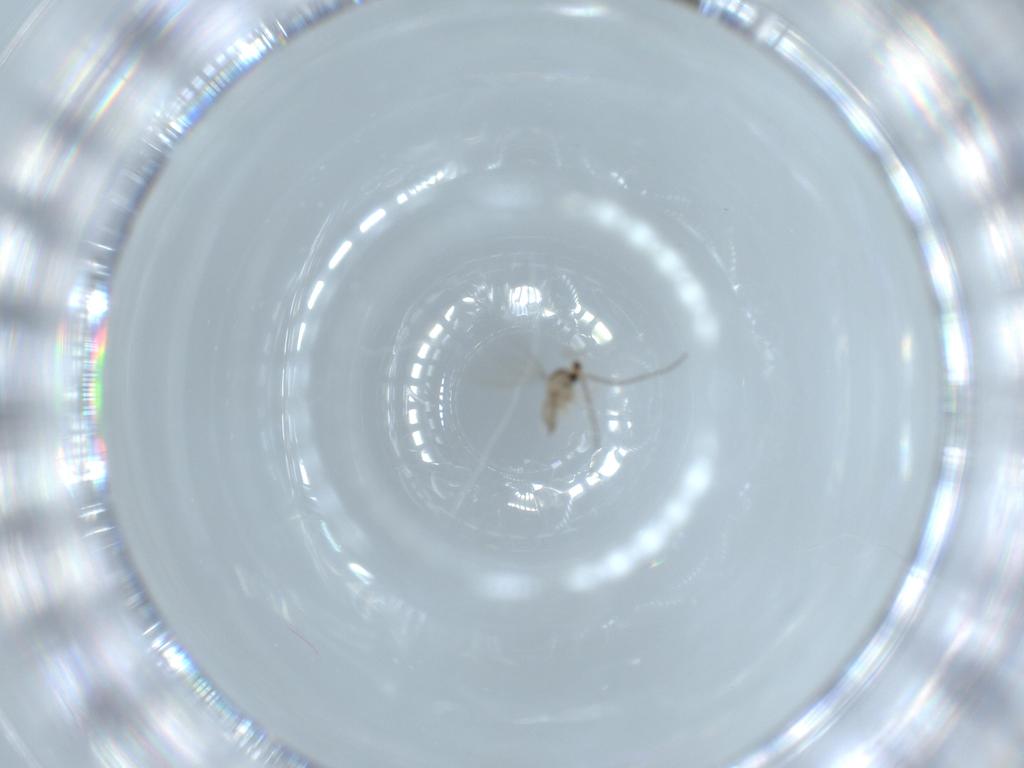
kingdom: Animalia
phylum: Arthropoda
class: Insecta
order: Diptera
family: Cecidomyiidae
